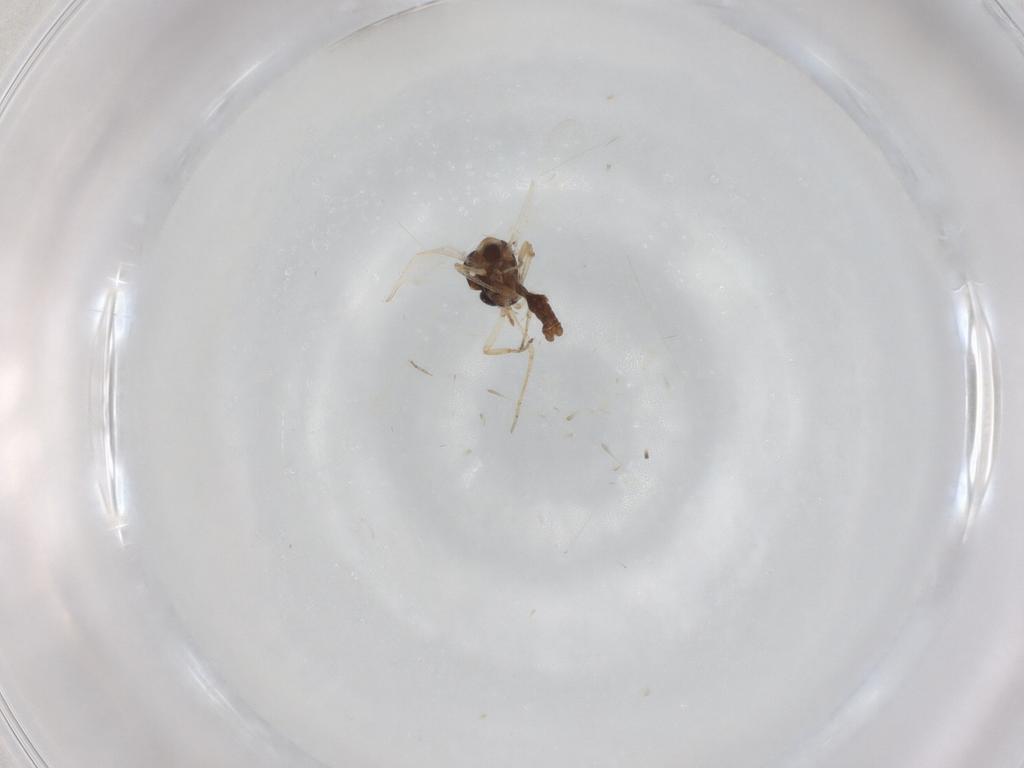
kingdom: Animalia
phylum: Arthropoda
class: Insecta
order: Diptera
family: Ceratopogonidae
